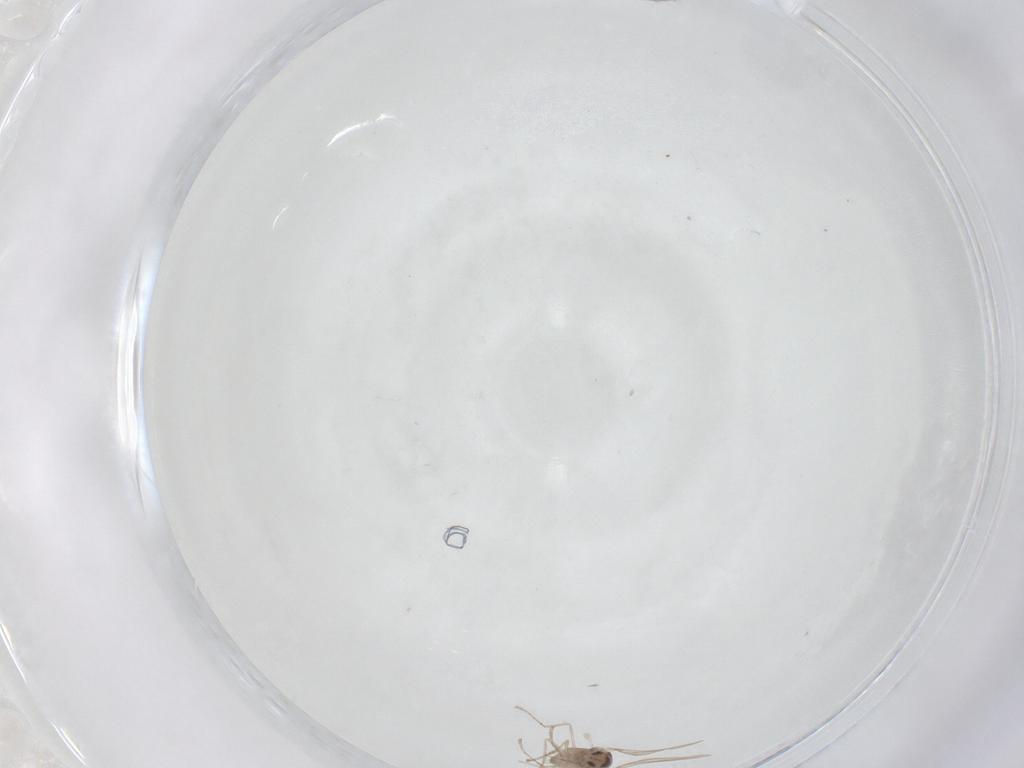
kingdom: Animalia
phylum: Arthropoda
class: Insecta
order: Diptera
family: Cecidomyiidae
